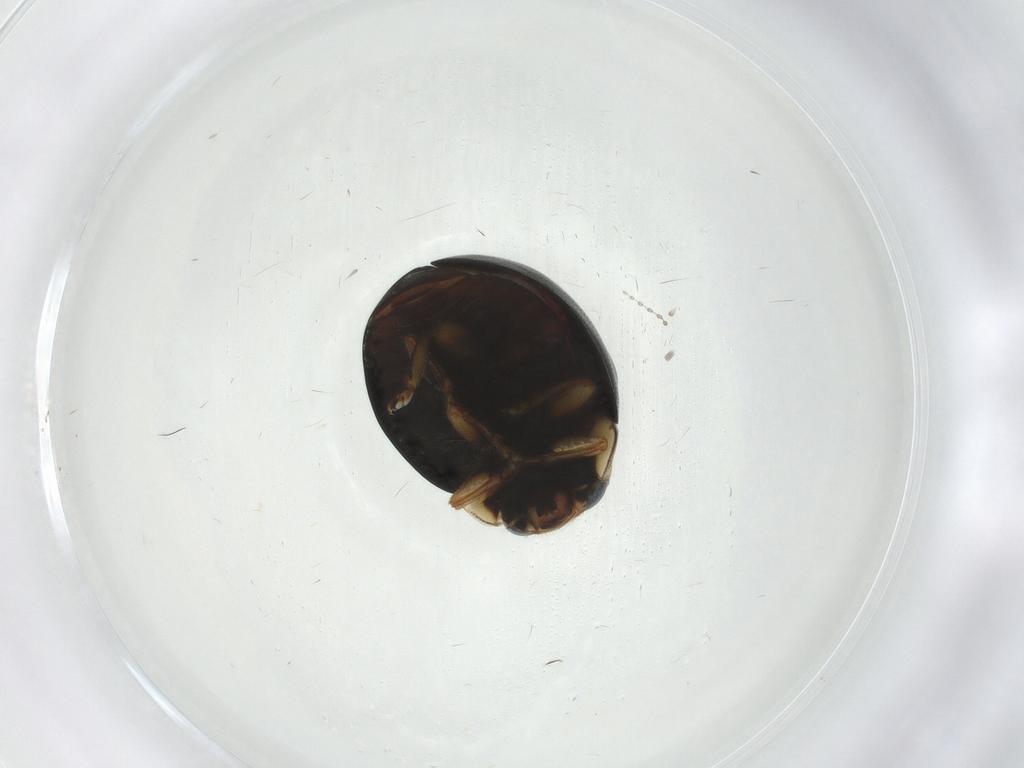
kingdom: Animalia
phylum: Arthropoda
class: Insecta
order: Coleoptera
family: Coccinellidae
